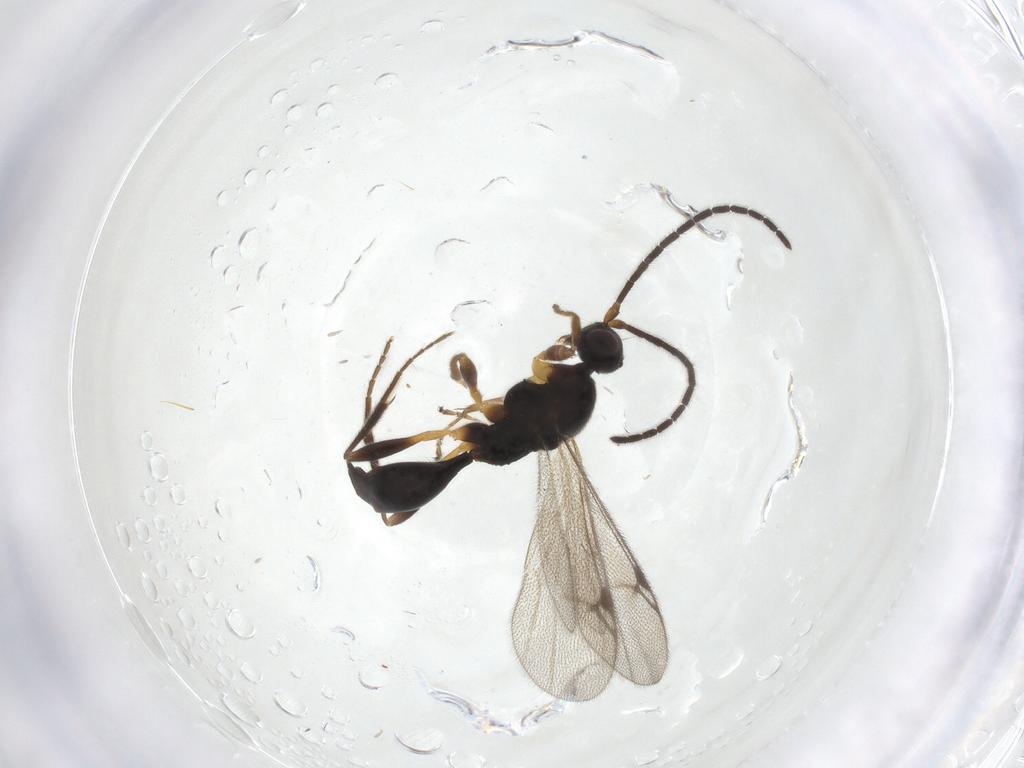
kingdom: Animalia
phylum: Arthropoda
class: Insecta
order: Hymenoptera
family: Proctotrupidae
